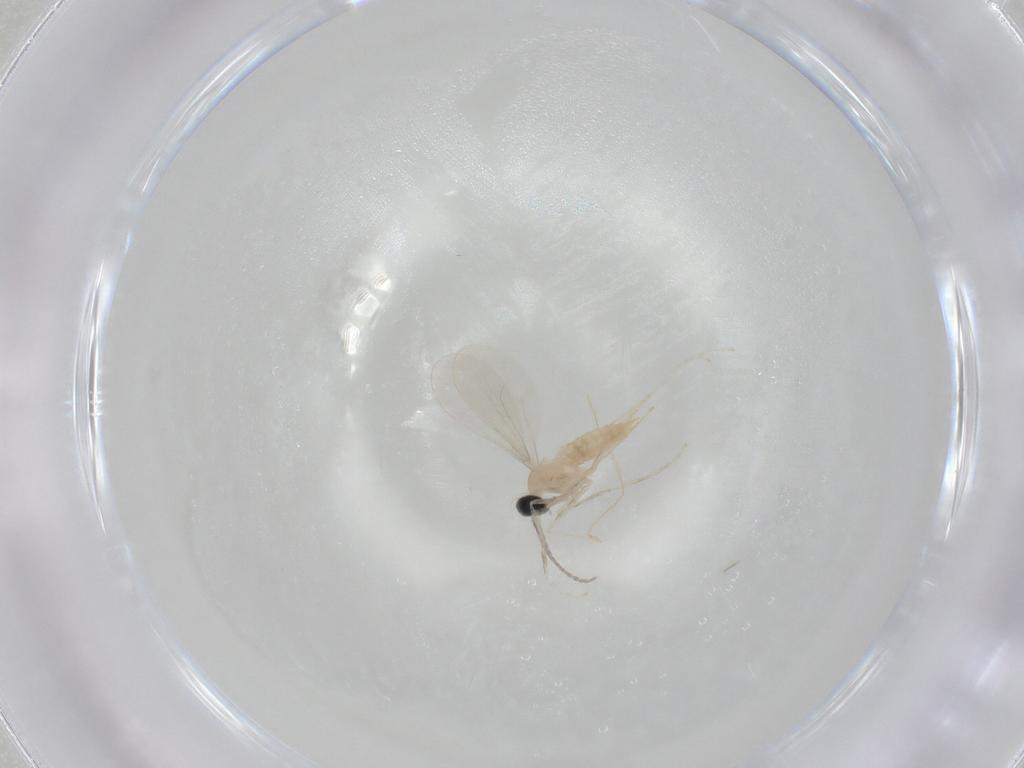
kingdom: Animalia
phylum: Arthropoda
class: Insecta
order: Diptera
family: Cecidomyiidae
